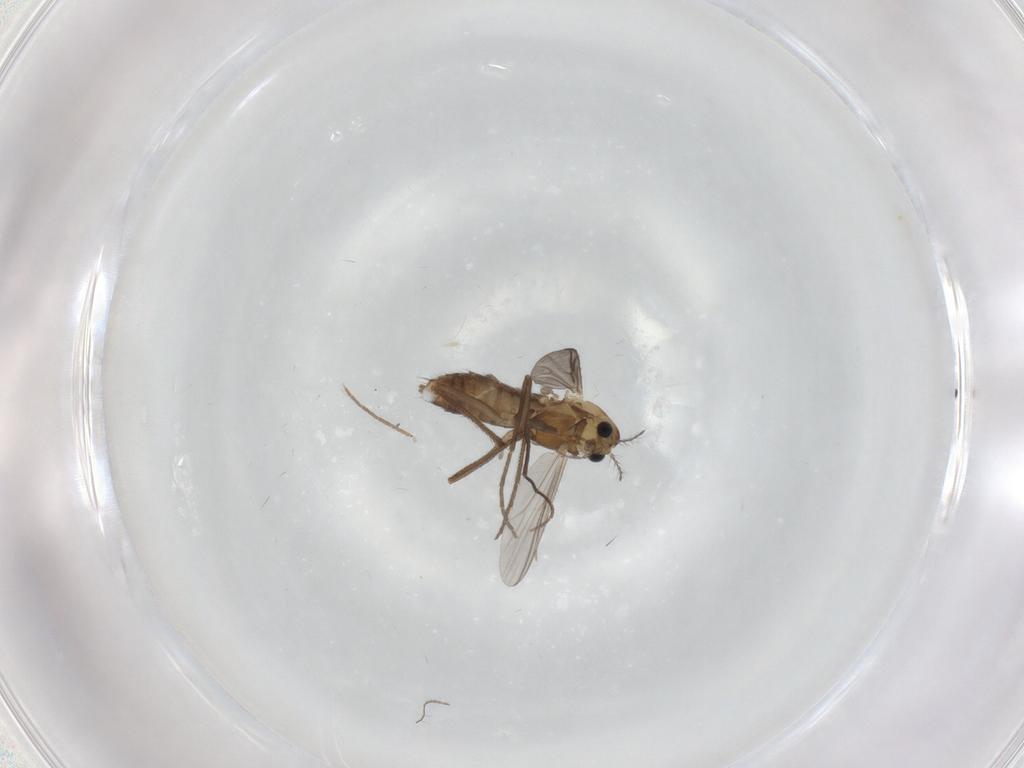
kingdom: Animalia
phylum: Arthropoda
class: Insecta
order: Diptera
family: Chironomidae
